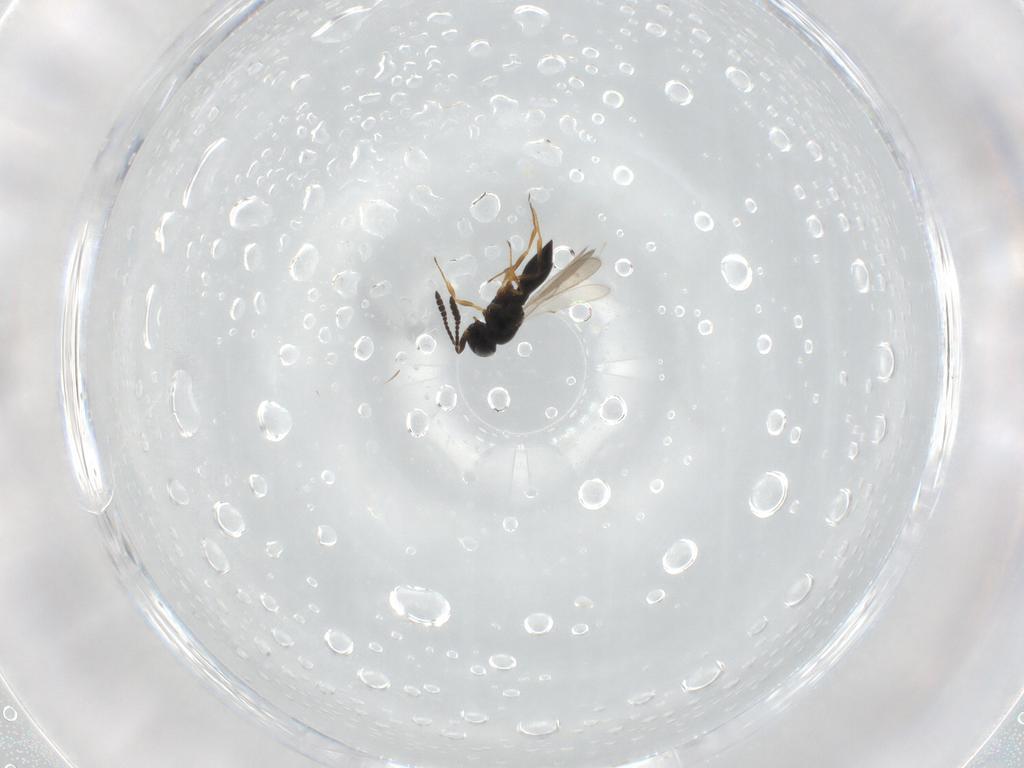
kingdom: Animalia
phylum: Arthropoda
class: Insecta
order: Hymenoptera
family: Scelionidae
